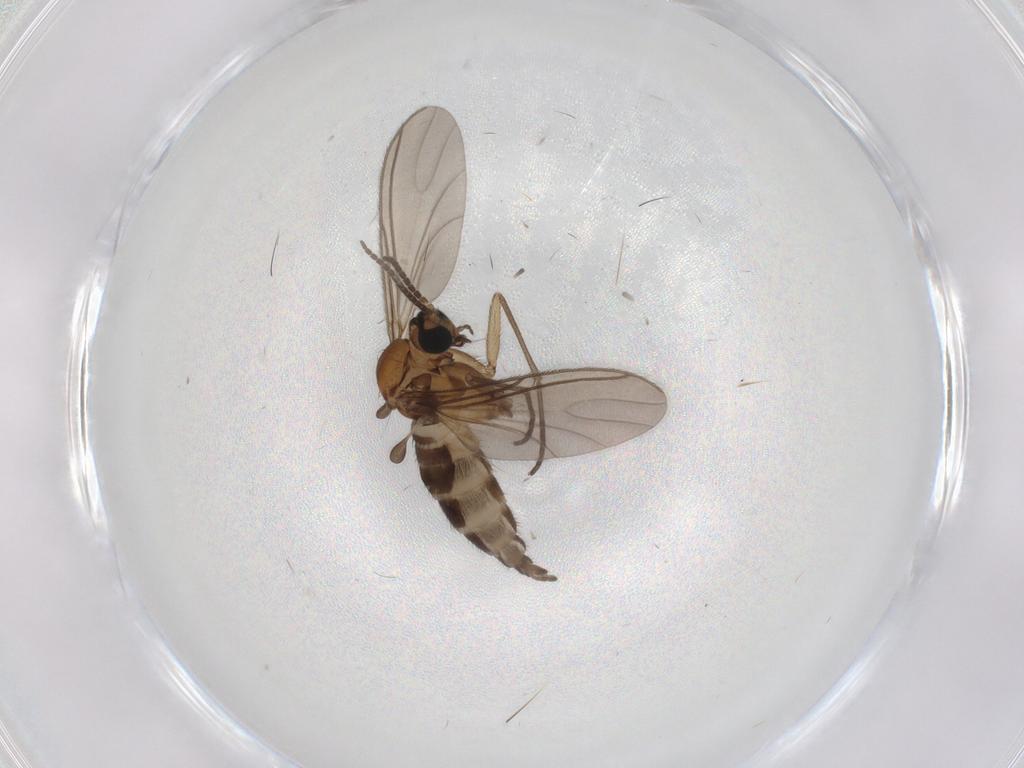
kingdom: Animalia
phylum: Arthropoda
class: Insecta
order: Diptera
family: Sciaridae
